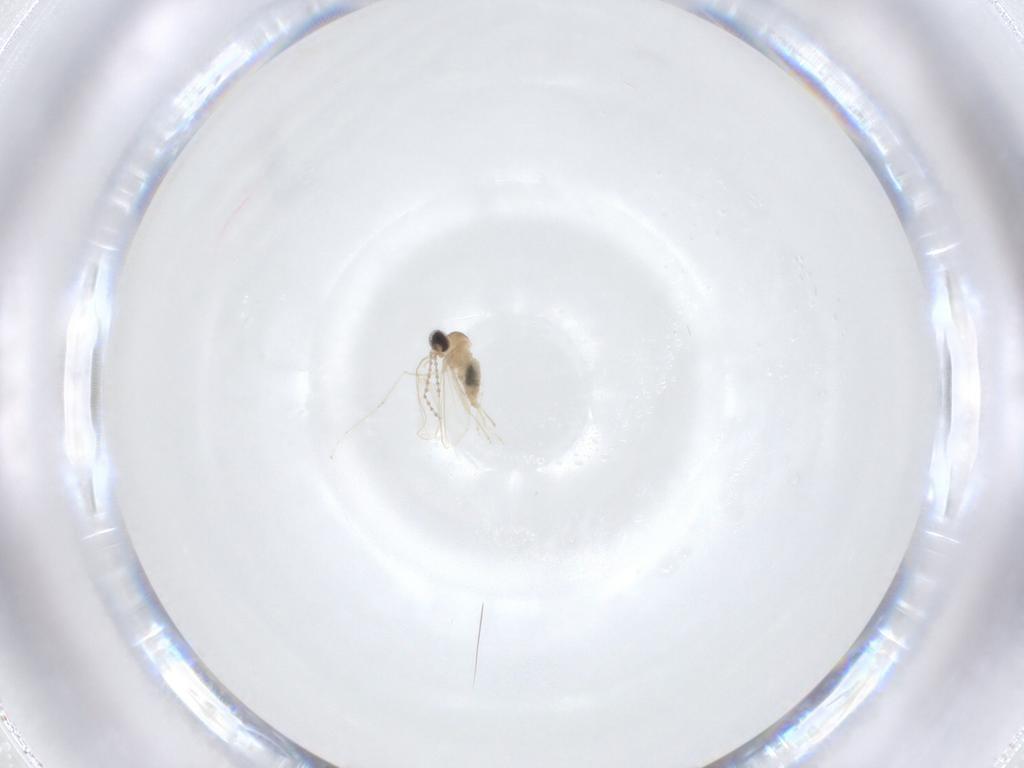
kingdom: Animalia
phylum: Arthropoda
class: Insecta
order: Diptera
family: Cecidomyiidae
